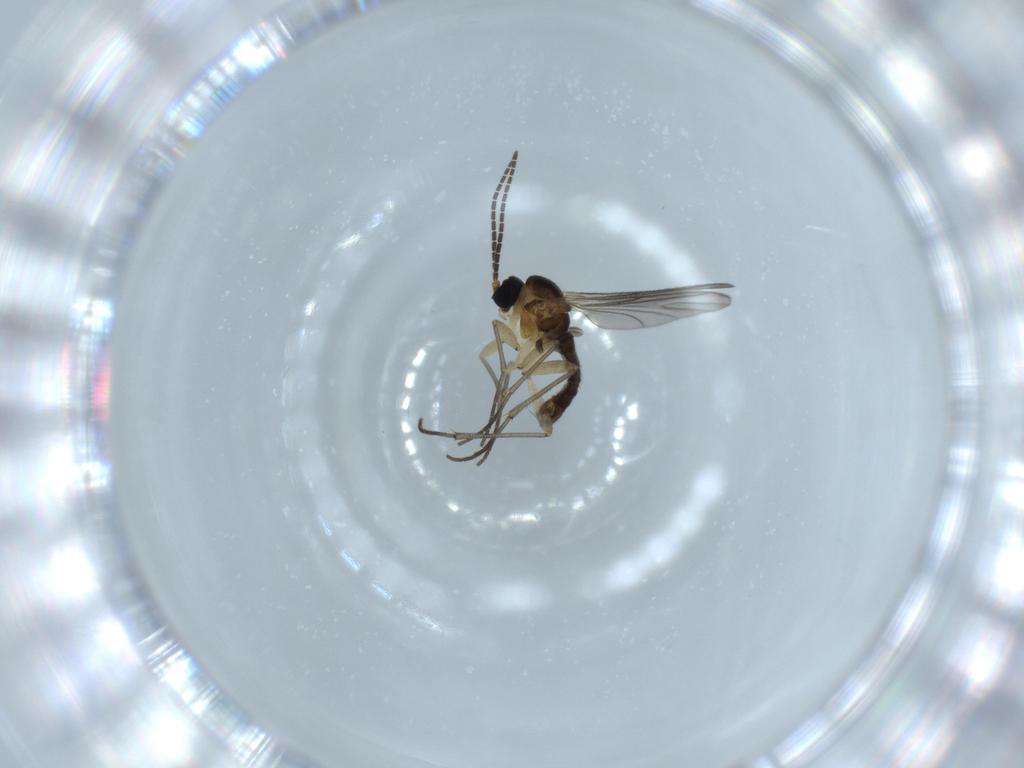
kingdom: Animalia
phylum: Arthropoda
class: Insecta
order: Diptera
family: Sciaridae
